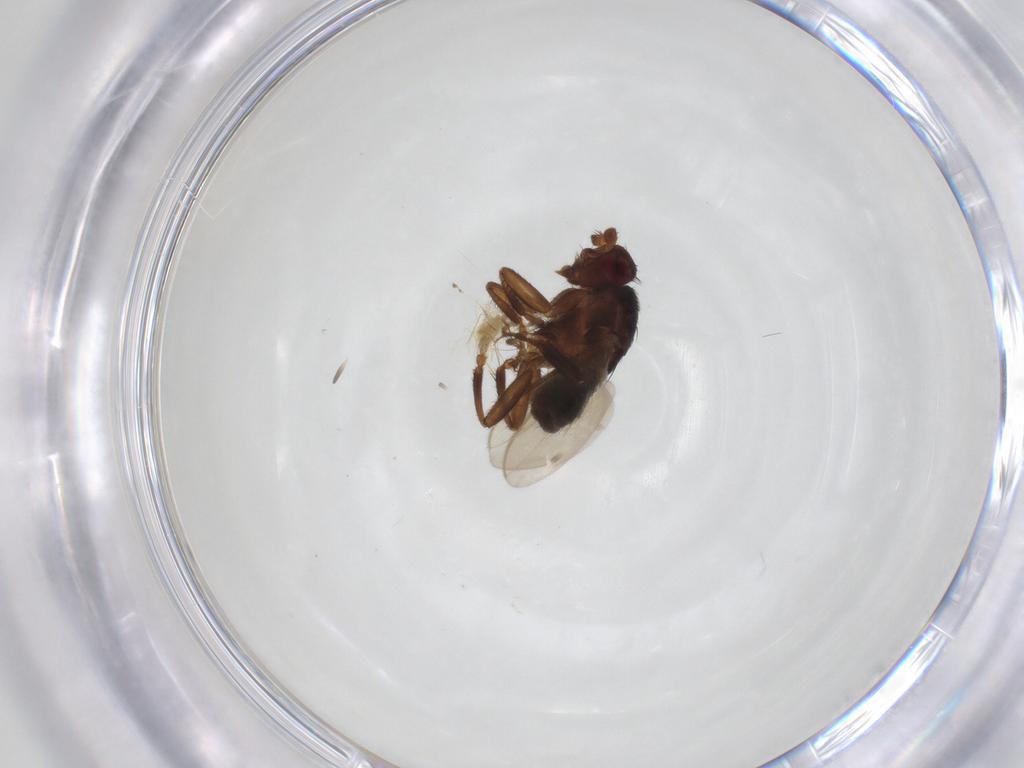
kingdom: Animalia
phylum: Arthropoda
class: Insecta
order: Diptera
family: Sphaeroceridae
